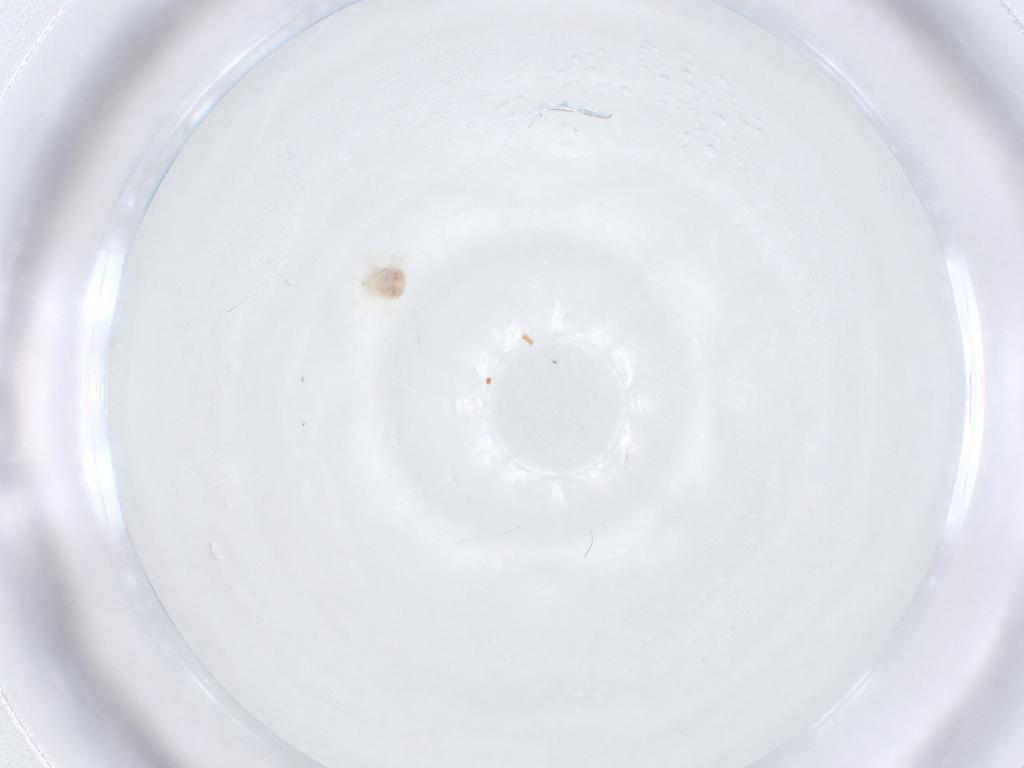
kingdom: Animalia
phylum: Arthropoda
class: Arachnida
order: Trombidiformes
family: Anystidae
